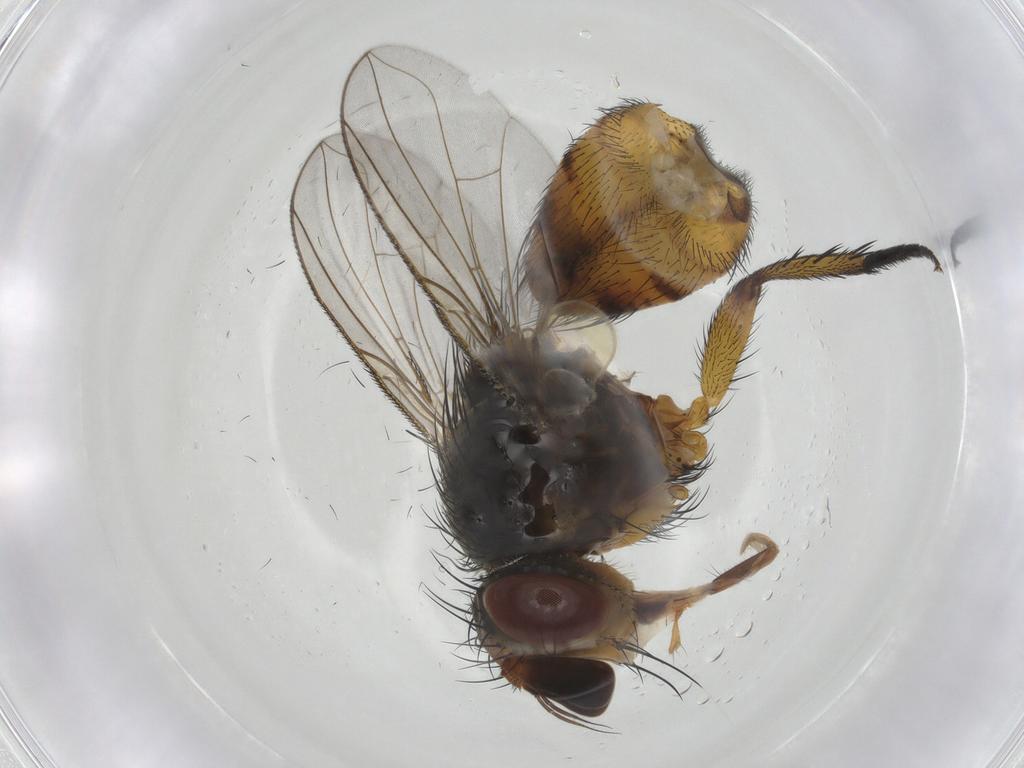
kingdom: Animalia
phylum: Arthropoda
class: Insecta
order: Diptera
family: Tachinidae
